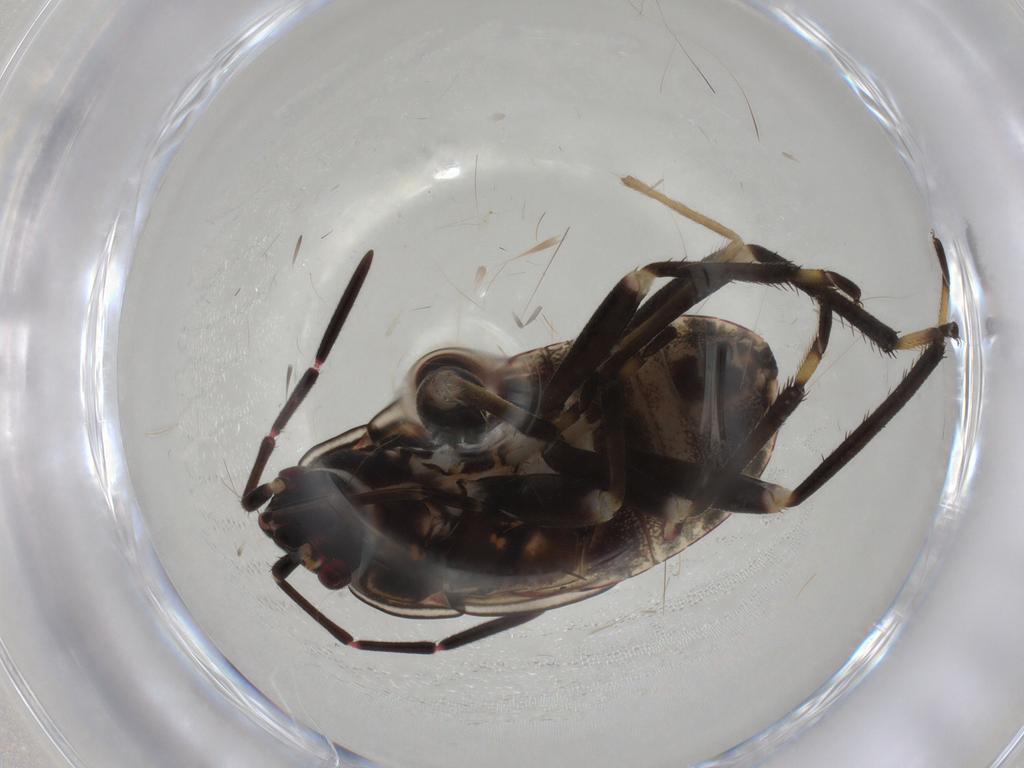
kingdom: Animalia
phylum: Arthropoda
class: Insecta
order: Hemiptera
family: Rhyparochromidae
